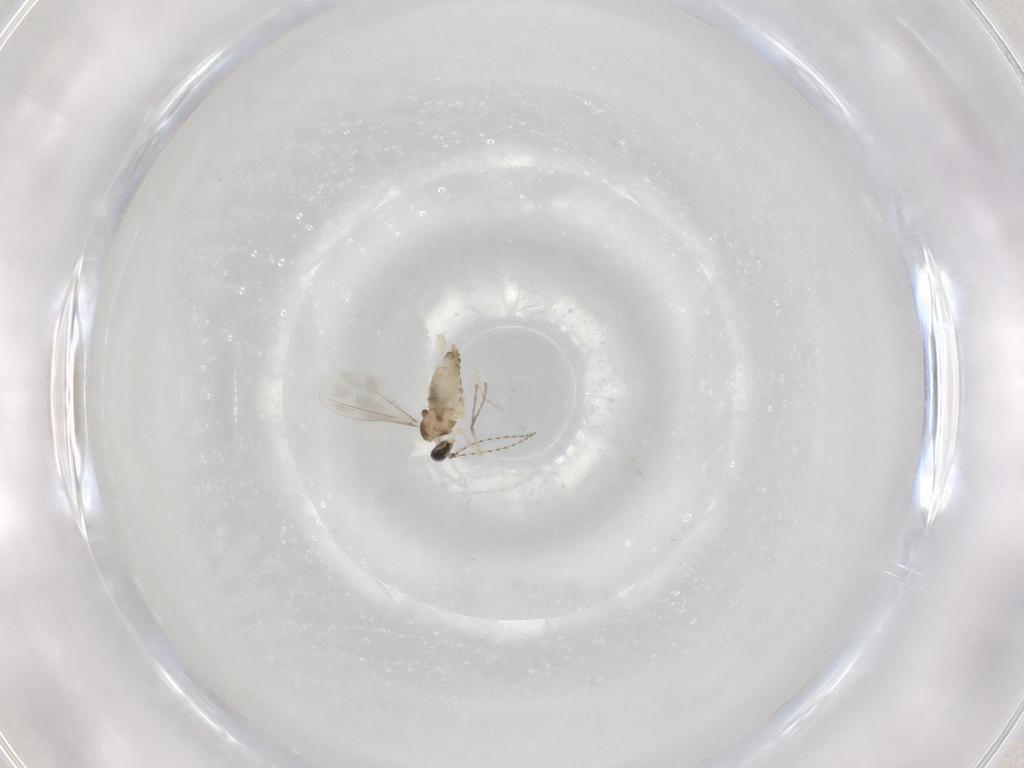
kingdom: Animalia
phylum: Arthropoda
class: Insecta
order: Diptera
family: Cecidomyiidae
